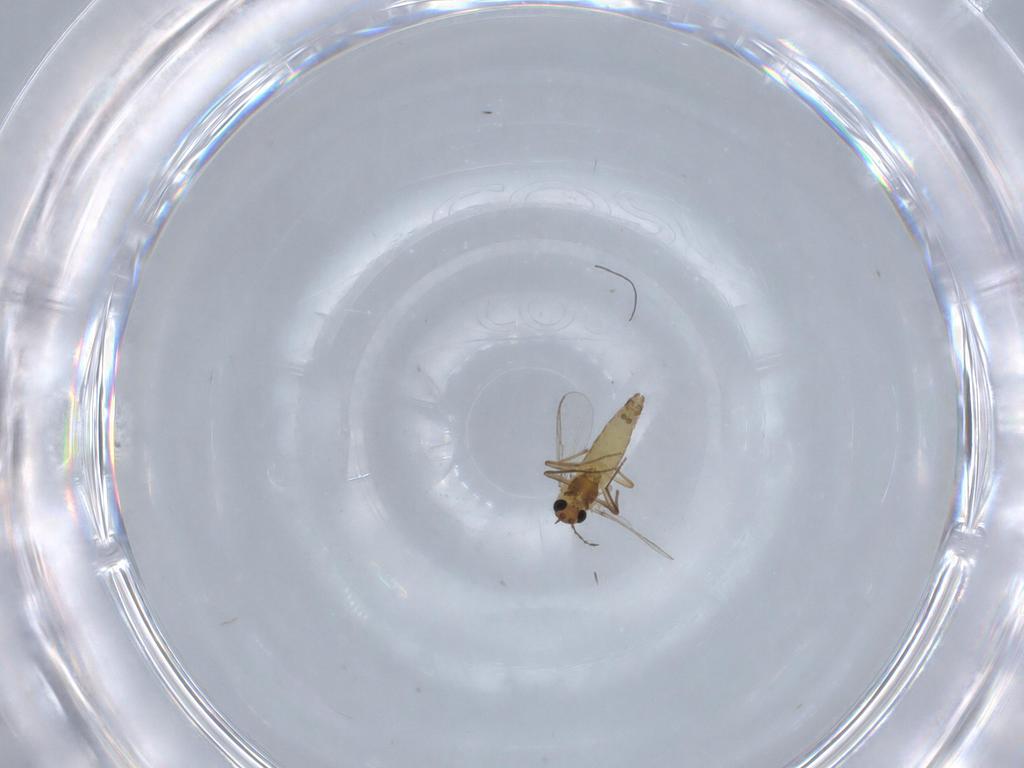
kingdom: Animalia
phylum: Arthropoda
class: Insecta
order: Diptera
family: Chironomidae
